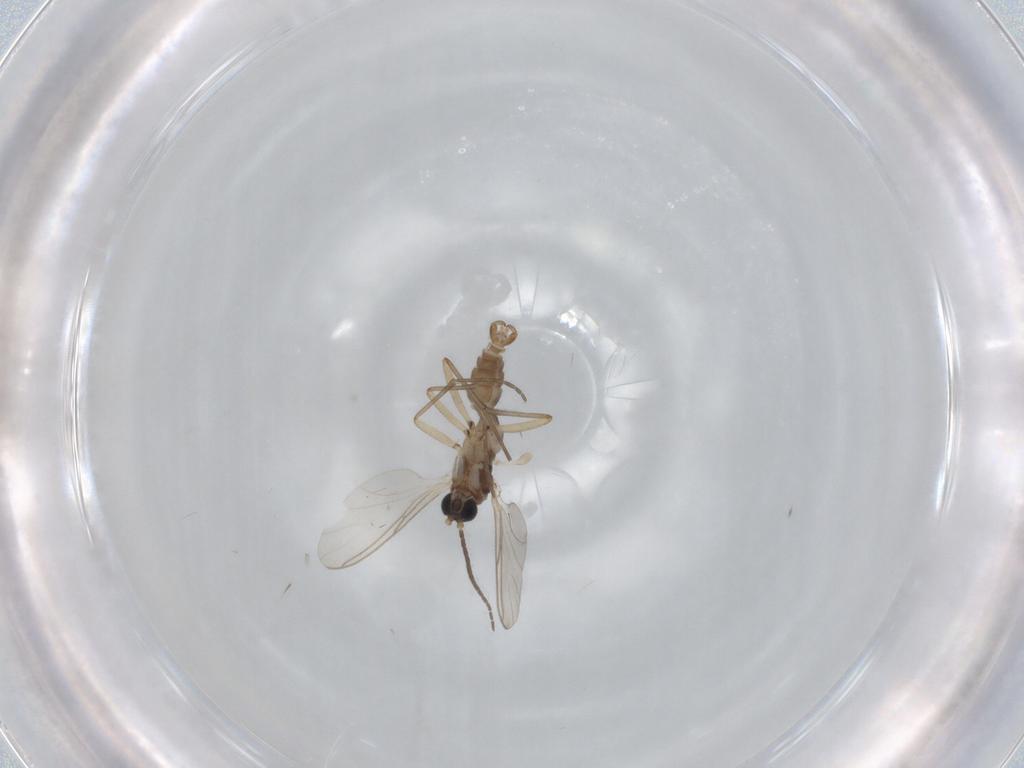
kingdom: Animalia
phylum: Arthropoda
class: Insecta
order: Diptera
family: Sciaridae
